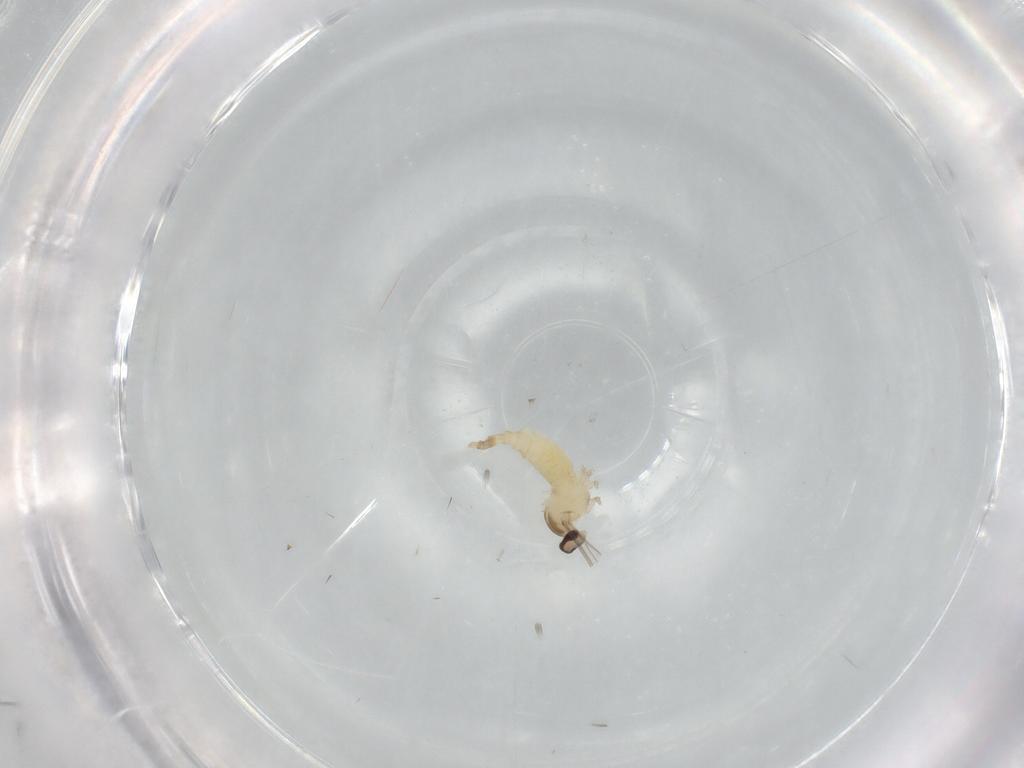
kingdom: Animalia
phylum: Arthropoda
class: Insecta
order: Diptera
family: Cecidomyiidae
